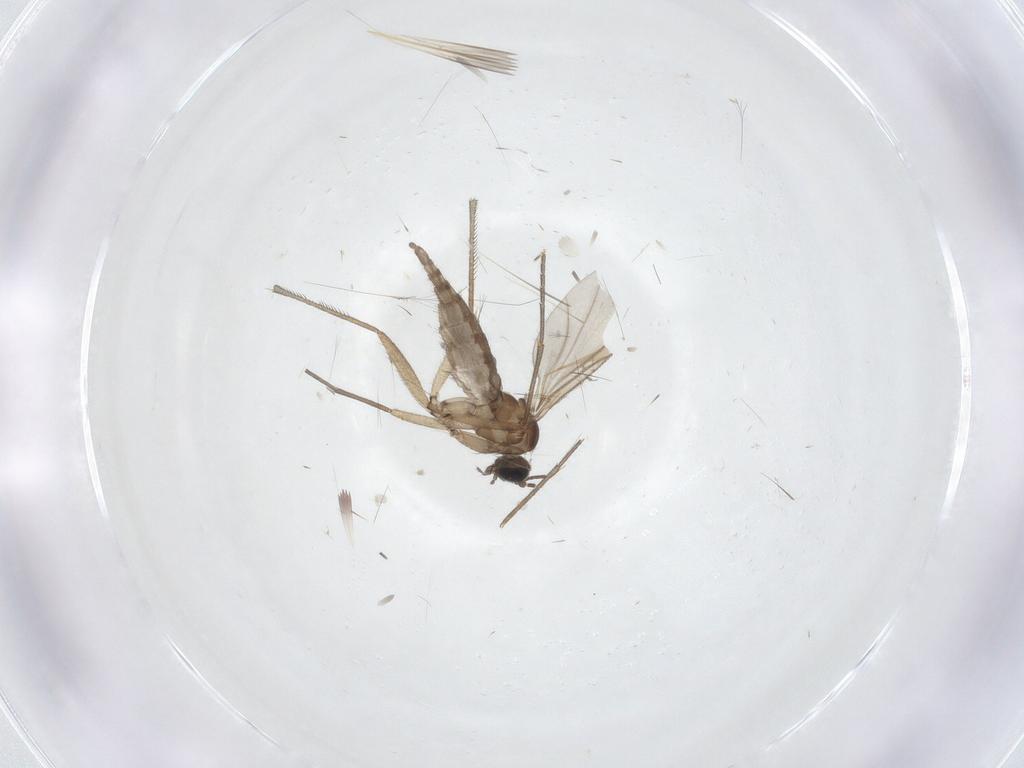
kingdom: Animalia
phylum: Arthropoda
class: Insecta
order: Diptera
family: Sciaridae
